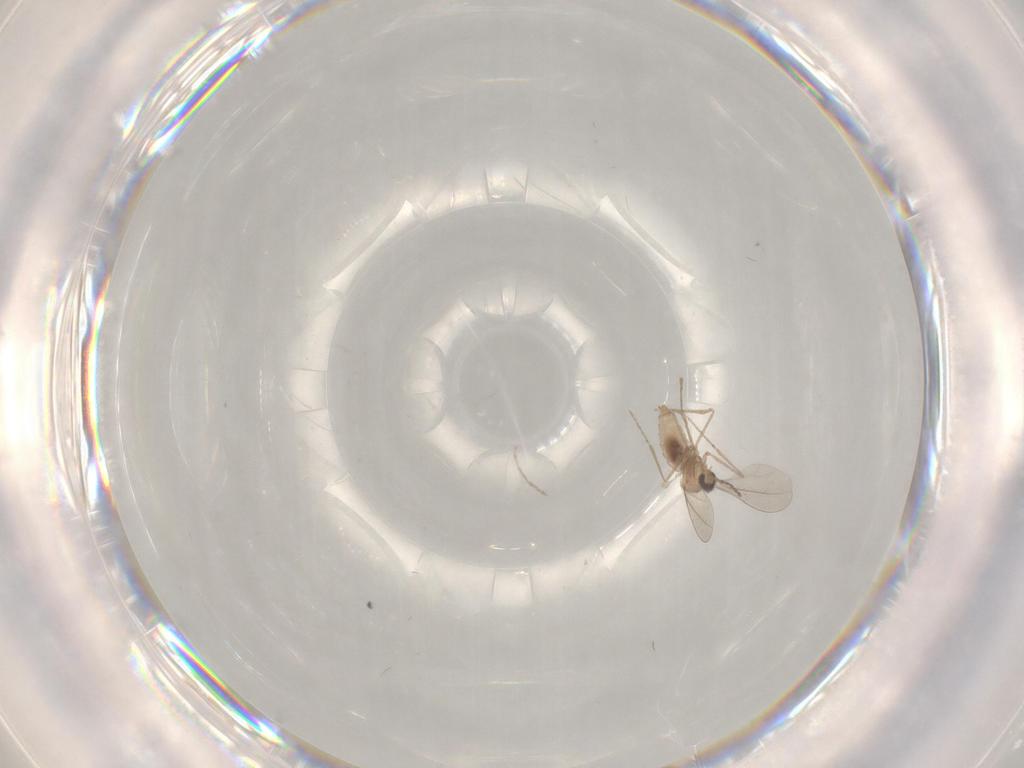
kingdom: Animalia
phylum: Arthropoda
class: Insecta
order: Diptera
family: Cecidomyiidae
